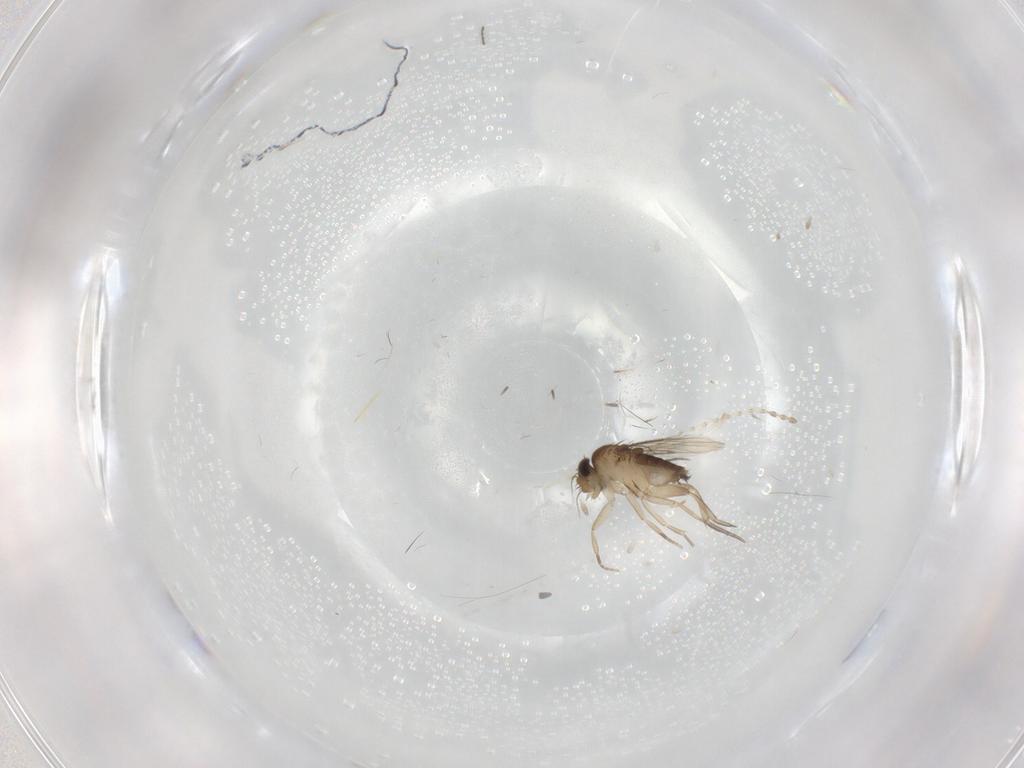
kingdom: Animalia
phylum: Arthropoda
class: Insecta
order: Diptera
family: Phoridae
